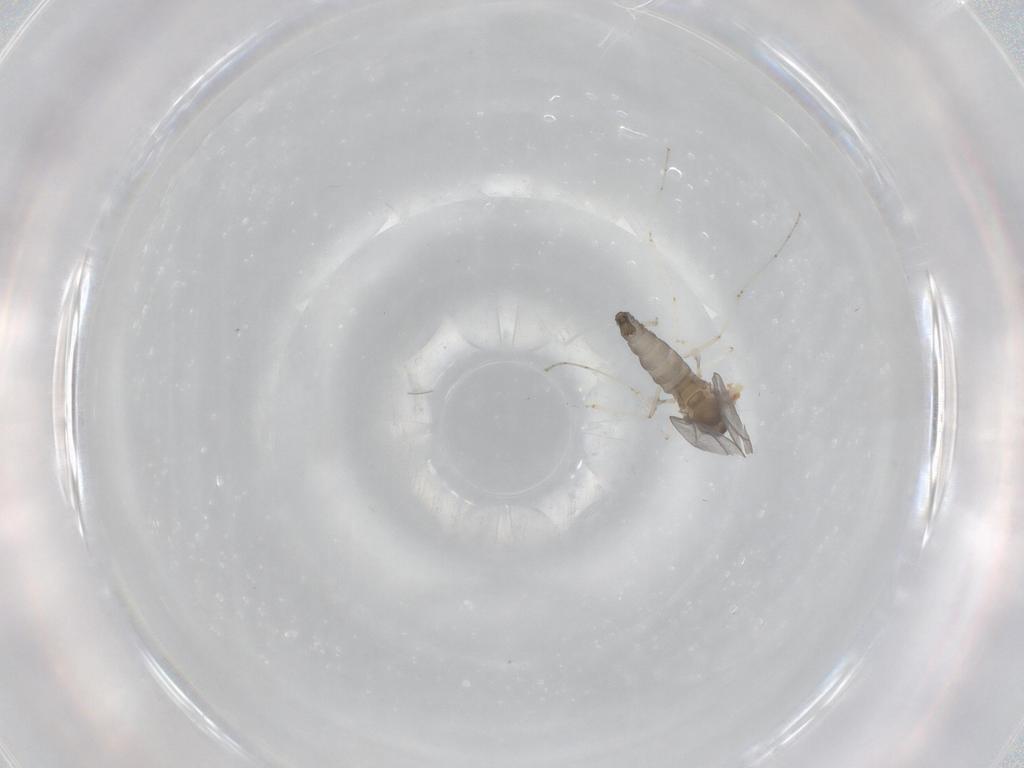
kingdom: Animalia
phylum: Arthropoda
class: Insecta
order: Diptera
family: Cecidomyiidae
